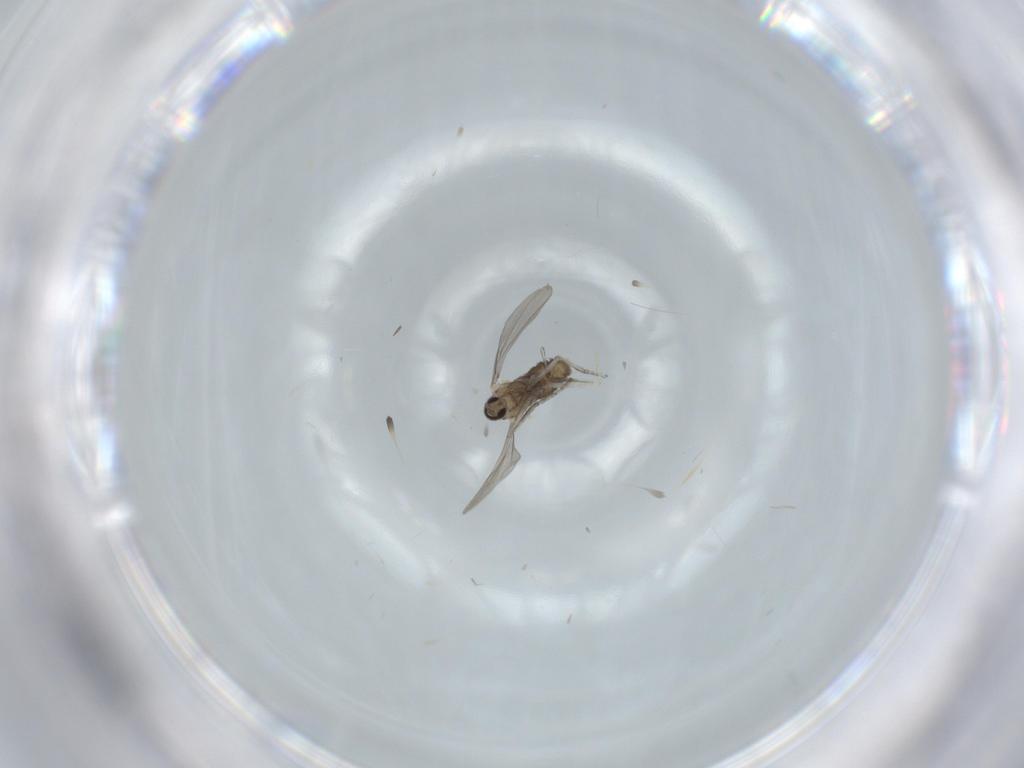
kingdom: Animalia
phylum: Arthropoda
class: Insecta
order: Diptera
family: Cecidomyiidae
